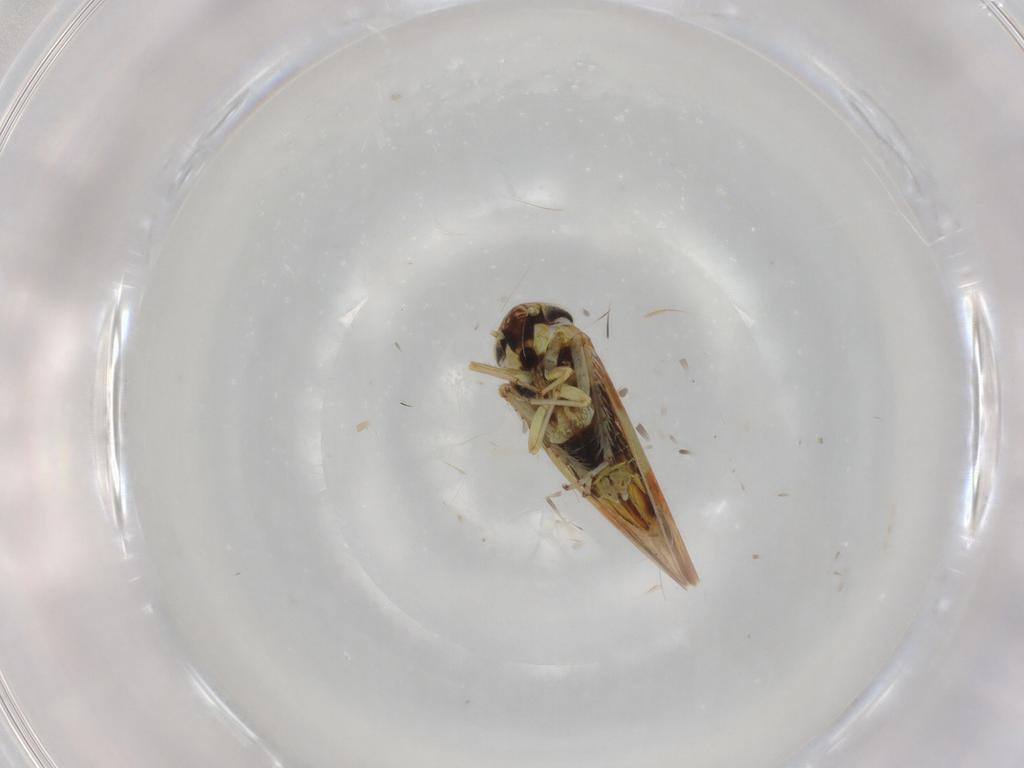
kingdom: Animalia
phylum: Arthropoda
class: Insecta
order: Hemiptera
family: Cicadellidae
